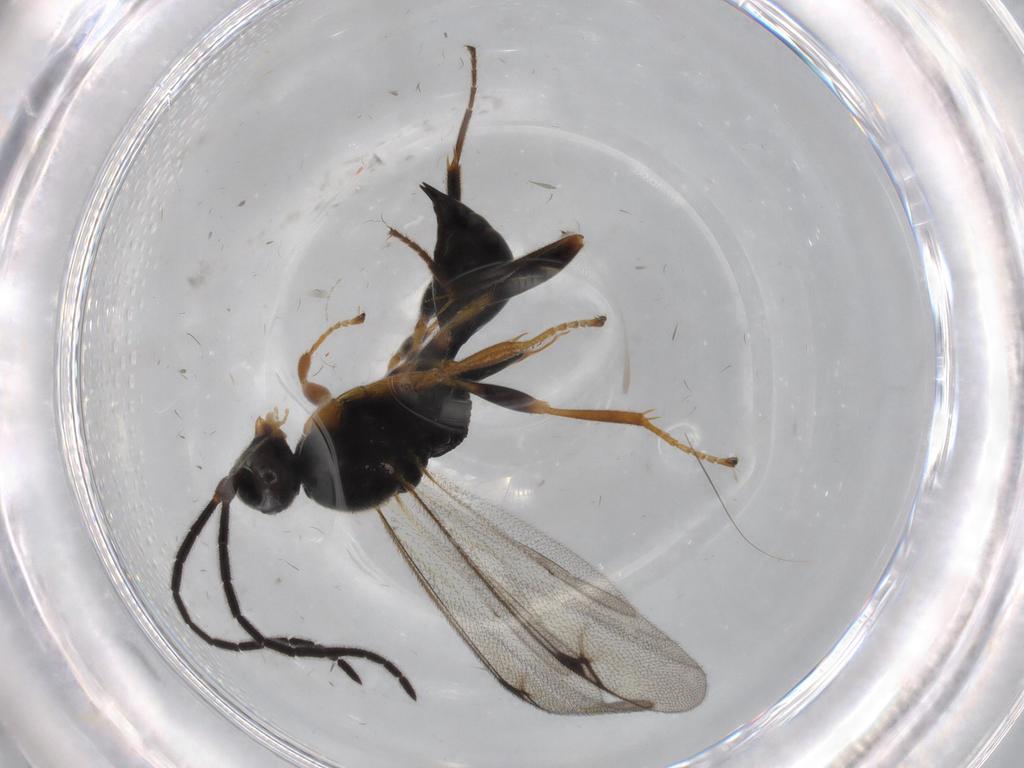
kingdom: Animalia
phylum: Arthropoda
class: Insecta
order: Hymenoptera
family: Proctotrupidae
